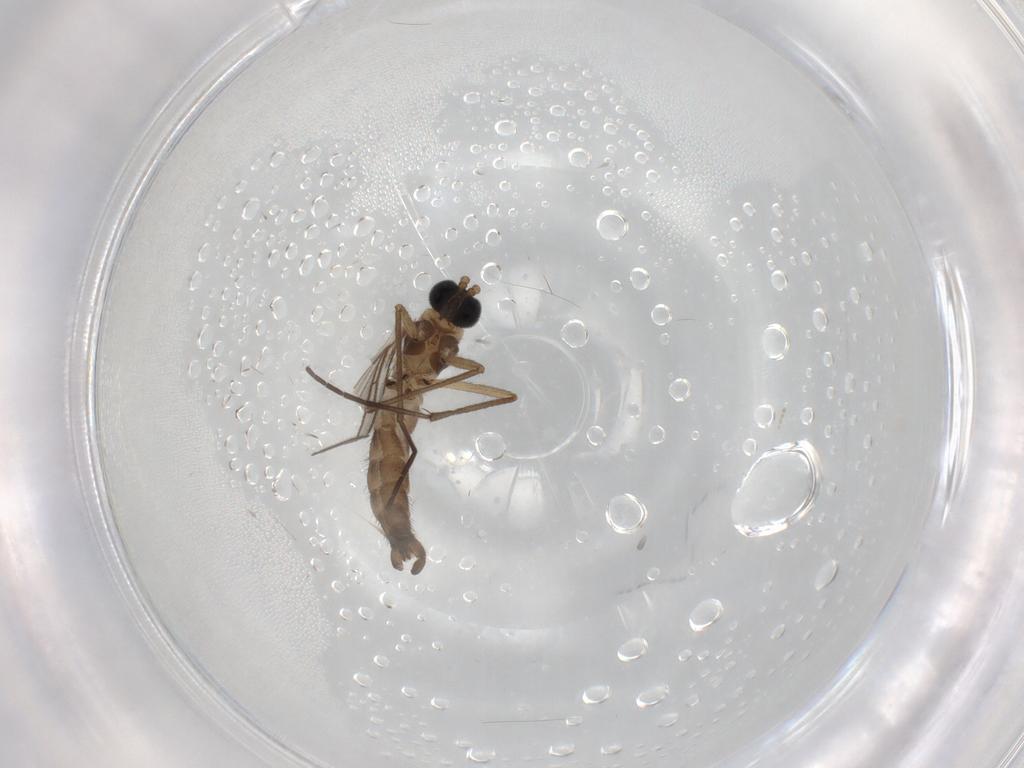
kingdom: Animalia
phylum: Arthropoda
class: Insecta
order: Diptera
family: Sciaridae
